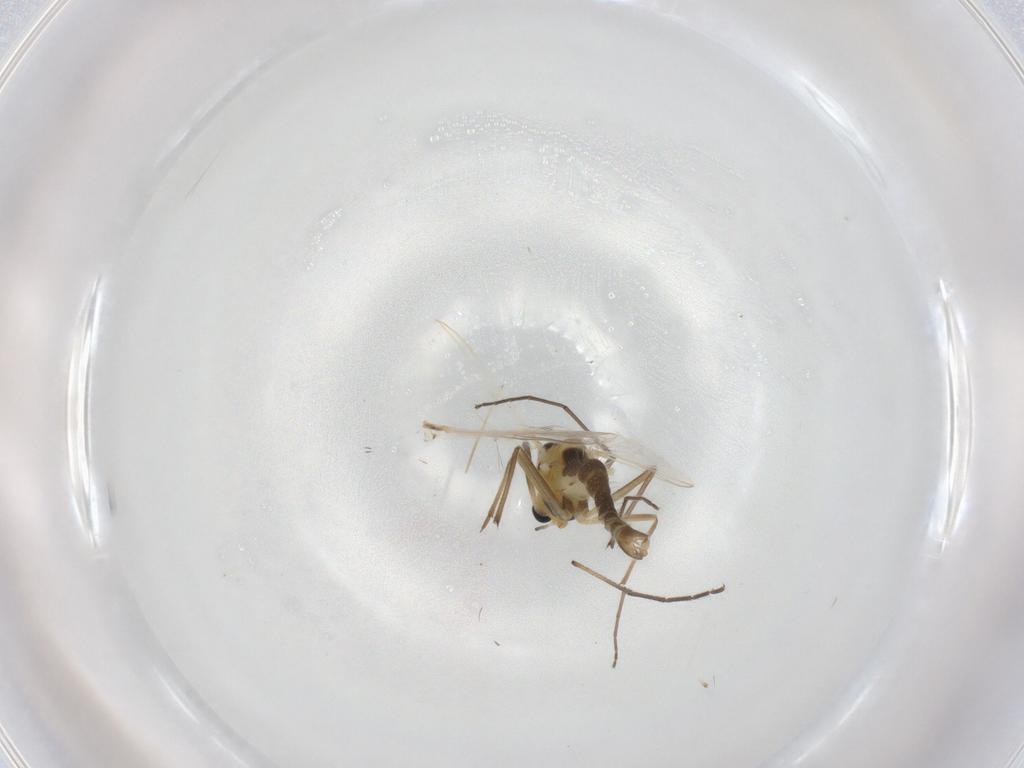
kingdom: Animalia
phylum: Arthropoda
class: Insecta
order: Diptera
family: Chironomidae
